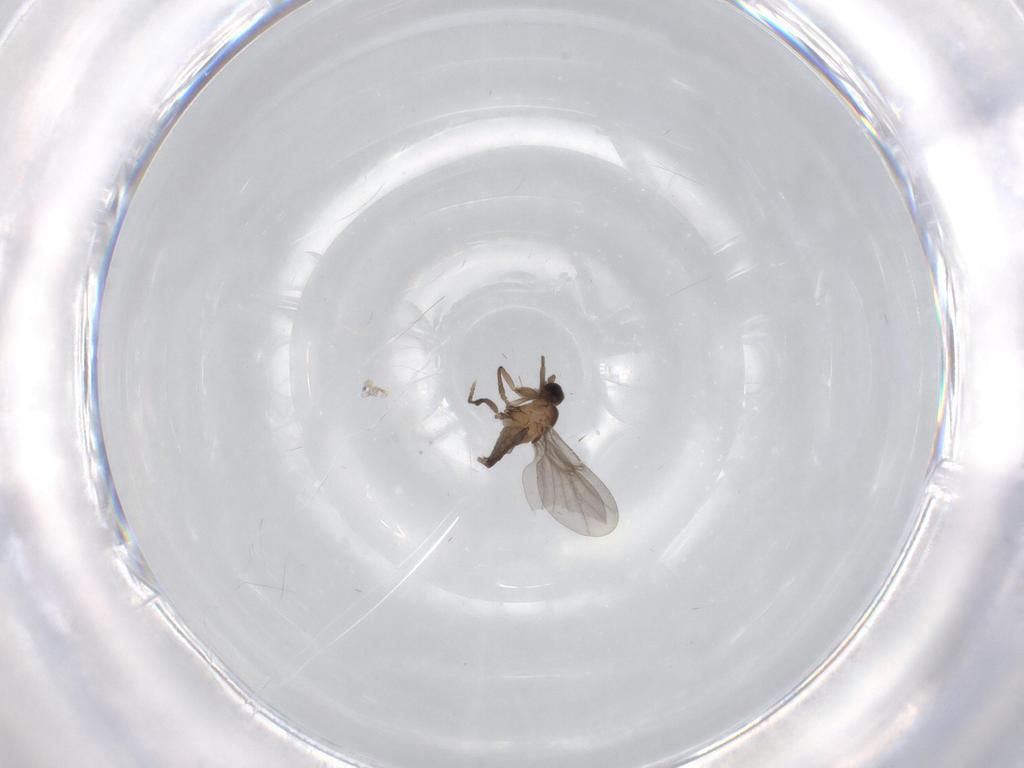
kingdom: Animalia
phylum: Arthropoda
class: Insecta
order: Diptera
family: Phoridae
